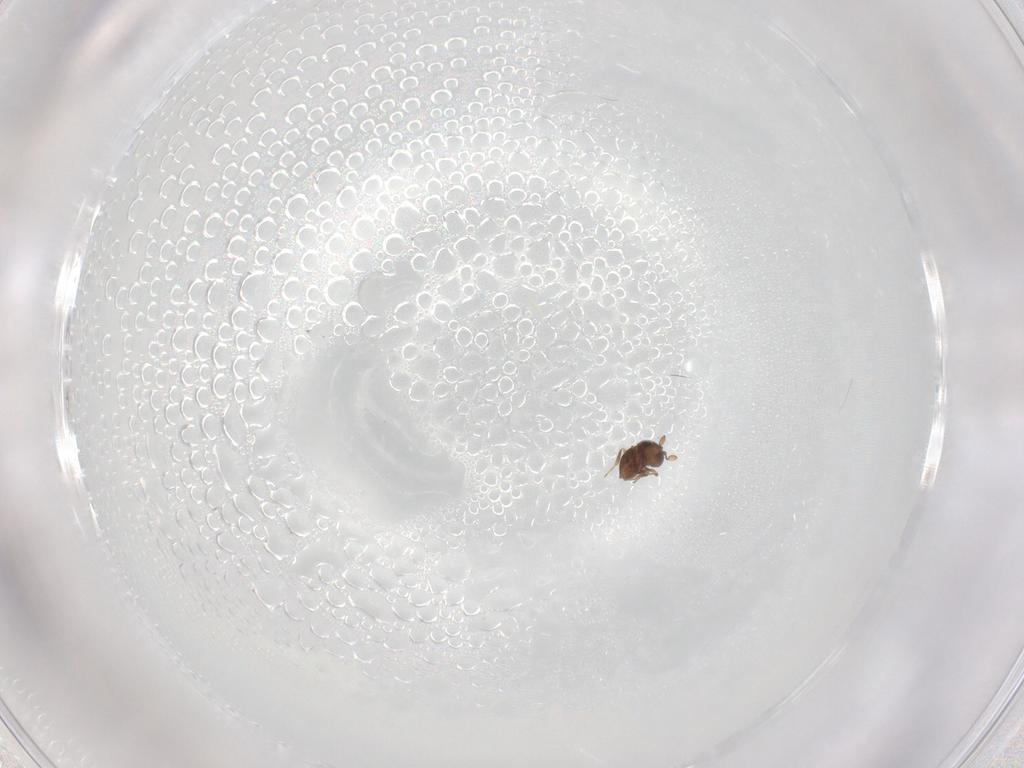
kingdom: Animalia
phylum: Arthropoda
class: Insecta
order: Hymenoptera
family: Scelionidae
